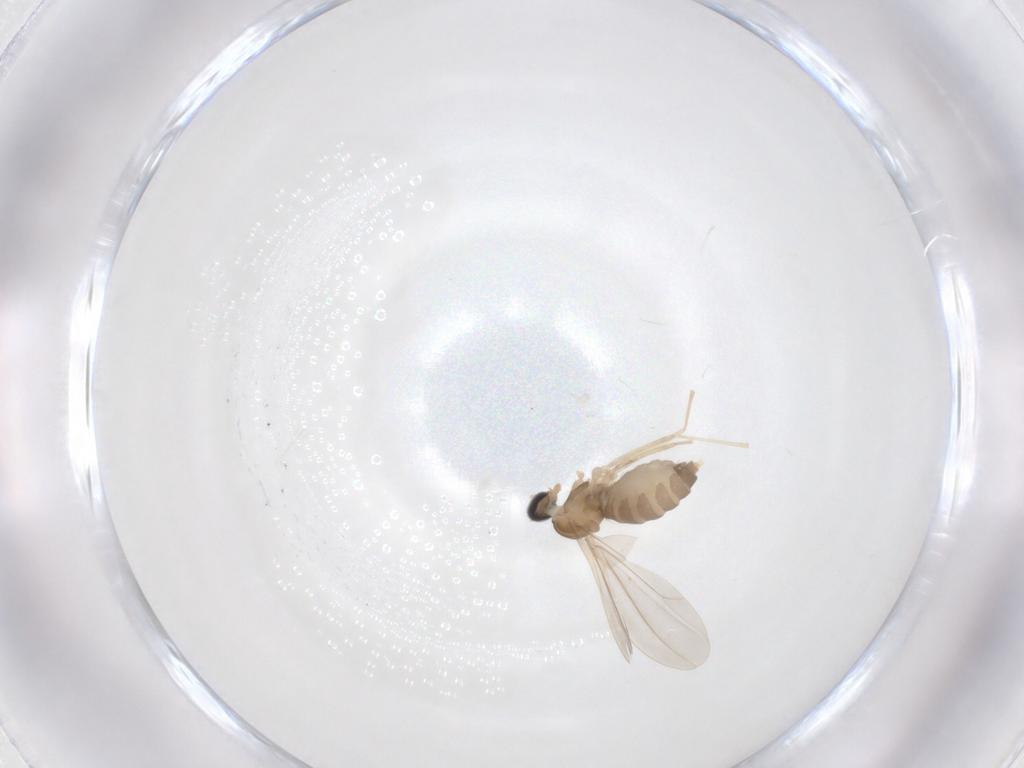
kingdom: Animalia
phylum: Arthropoda
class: Insecta
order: Diptera
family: Cecidomyiidae
